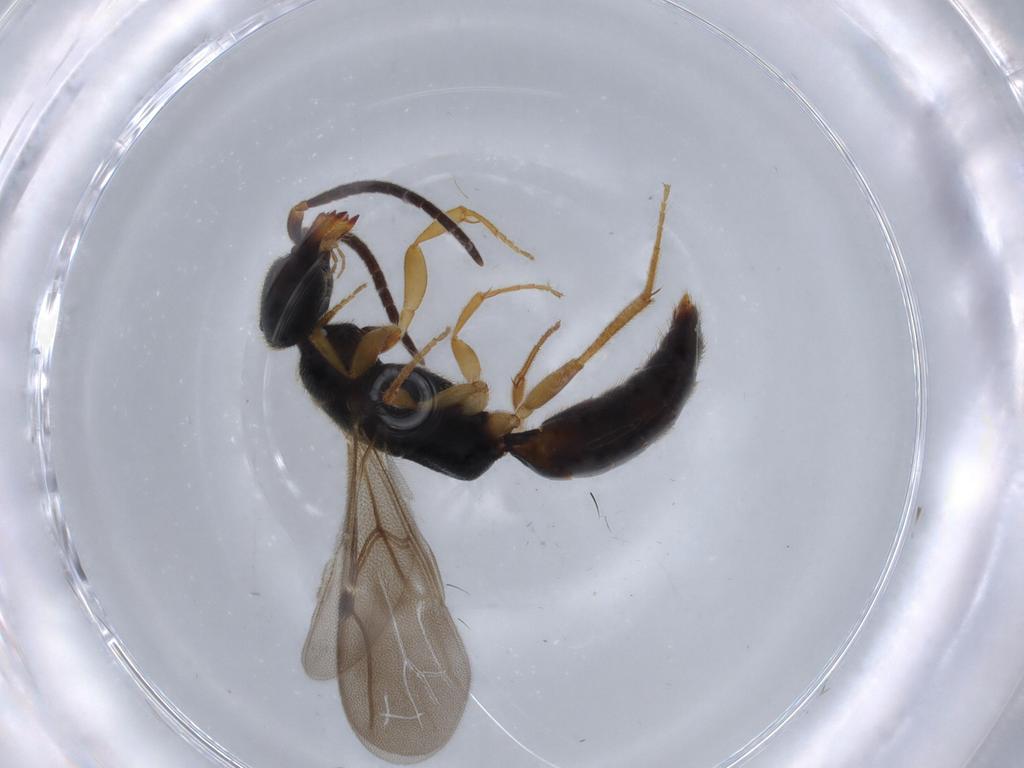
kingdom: Animalia
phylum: Arthropoda
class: Insecta
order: Hymenoptera
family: Bethylidae
